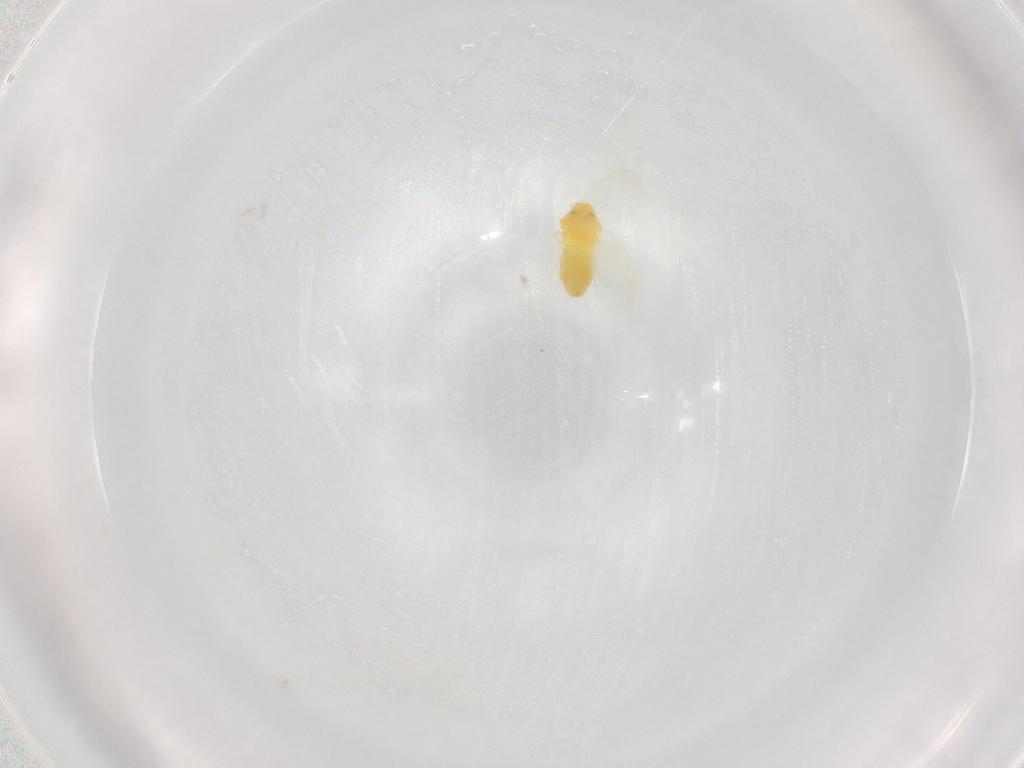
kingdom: Animalia
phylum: Arthropoda
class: Insecta
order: Hemiptera
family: Aleyrodidae
